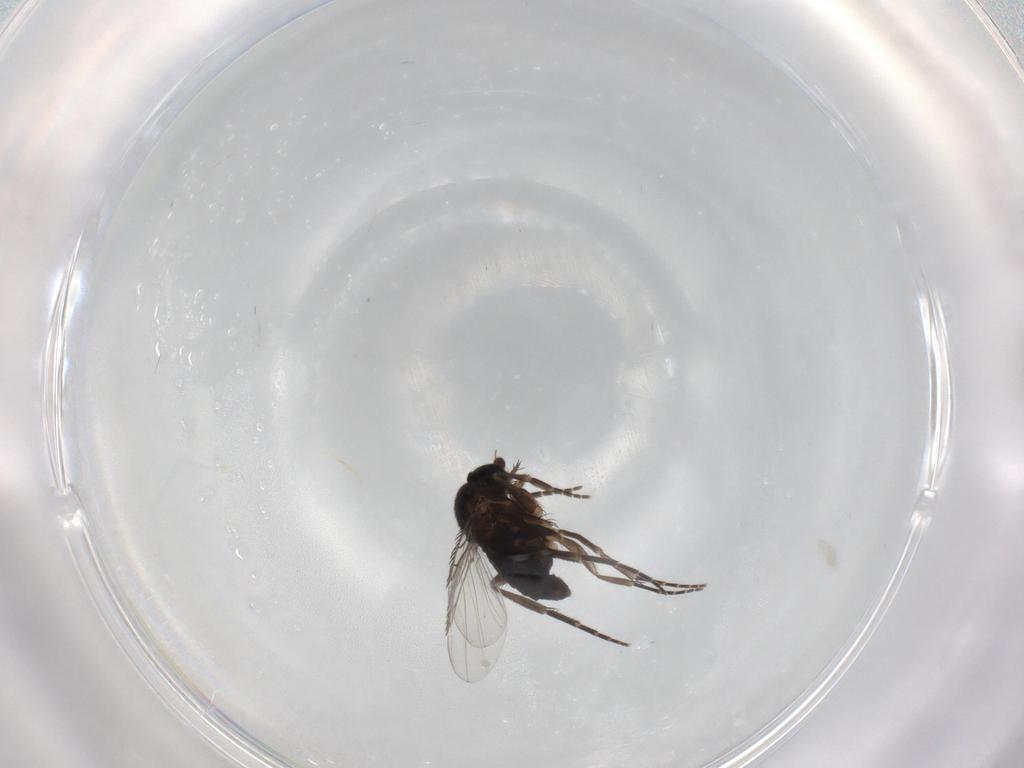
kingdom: Animalia
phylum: Arthropoda
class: Insecta
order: Diptera
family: Phoridae
